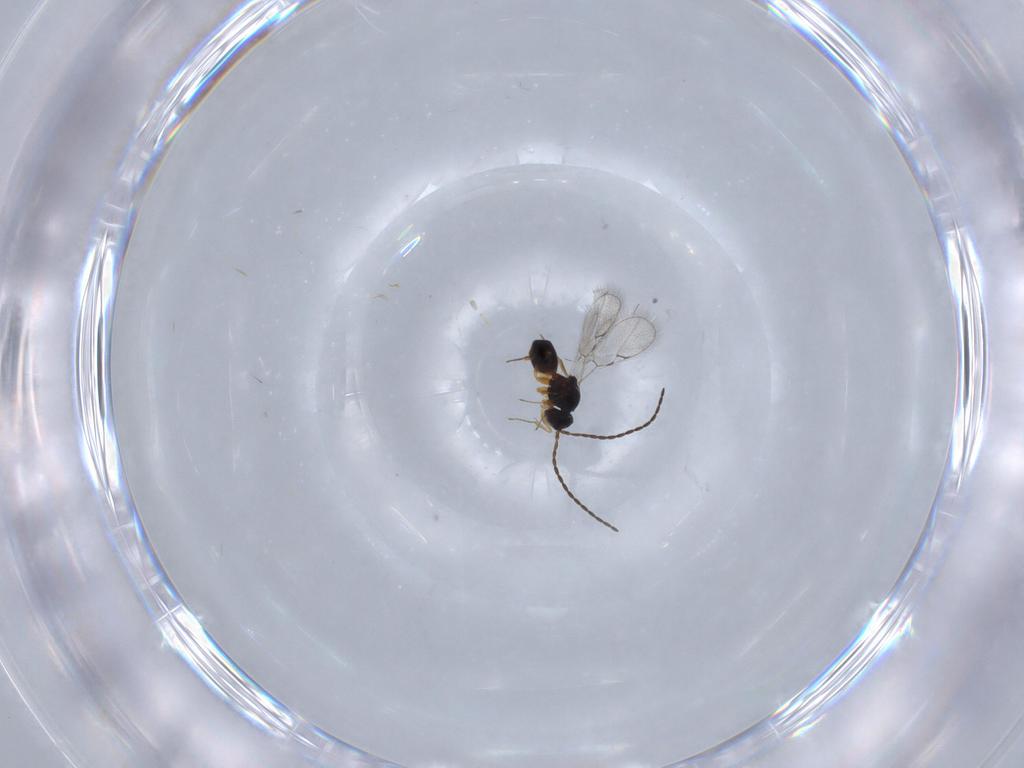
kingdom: Animalia
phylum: Arthropoda
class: Insecta
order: Hymenoptera
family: Figitidae
